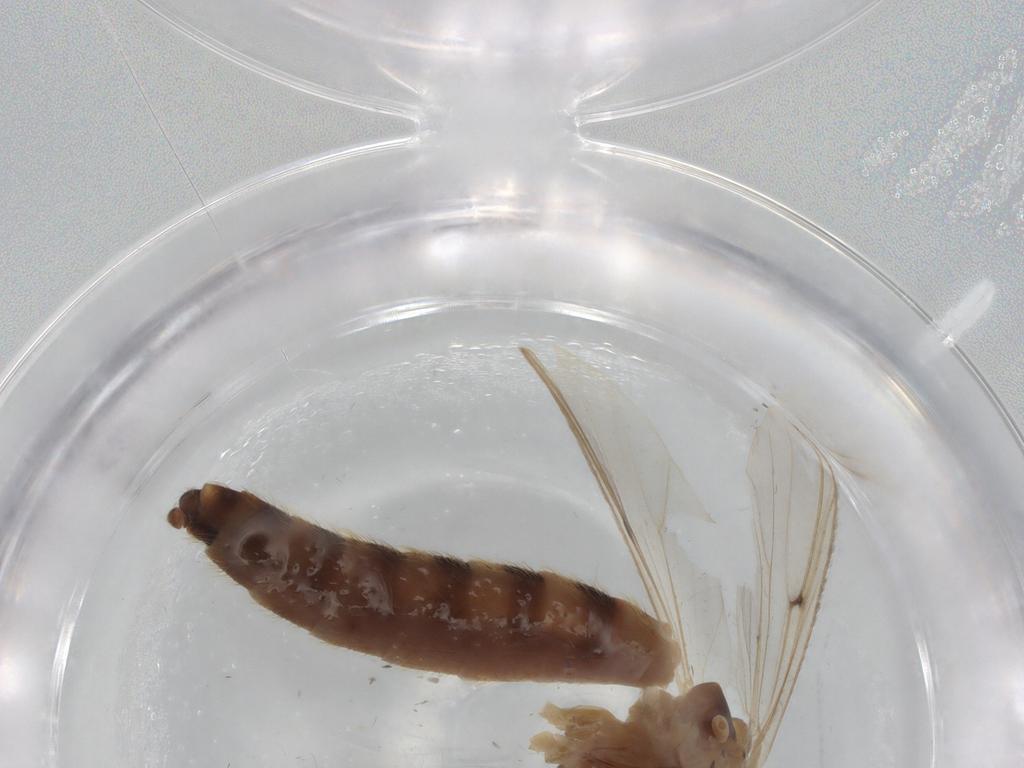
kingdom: Animalia
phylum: Arthropoda
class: Insecta
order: Diptera
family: Chironomidae
